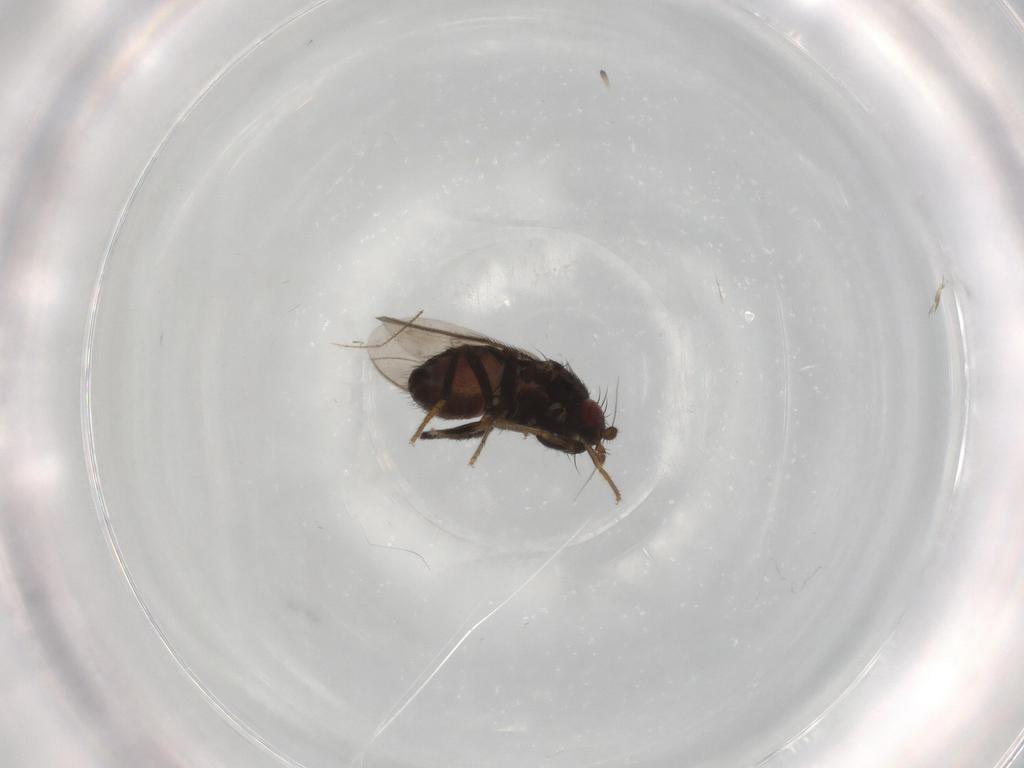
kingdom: Animalia
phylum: Arthropoda
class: Insecta
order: Diptera
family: Sphaeroceridae
